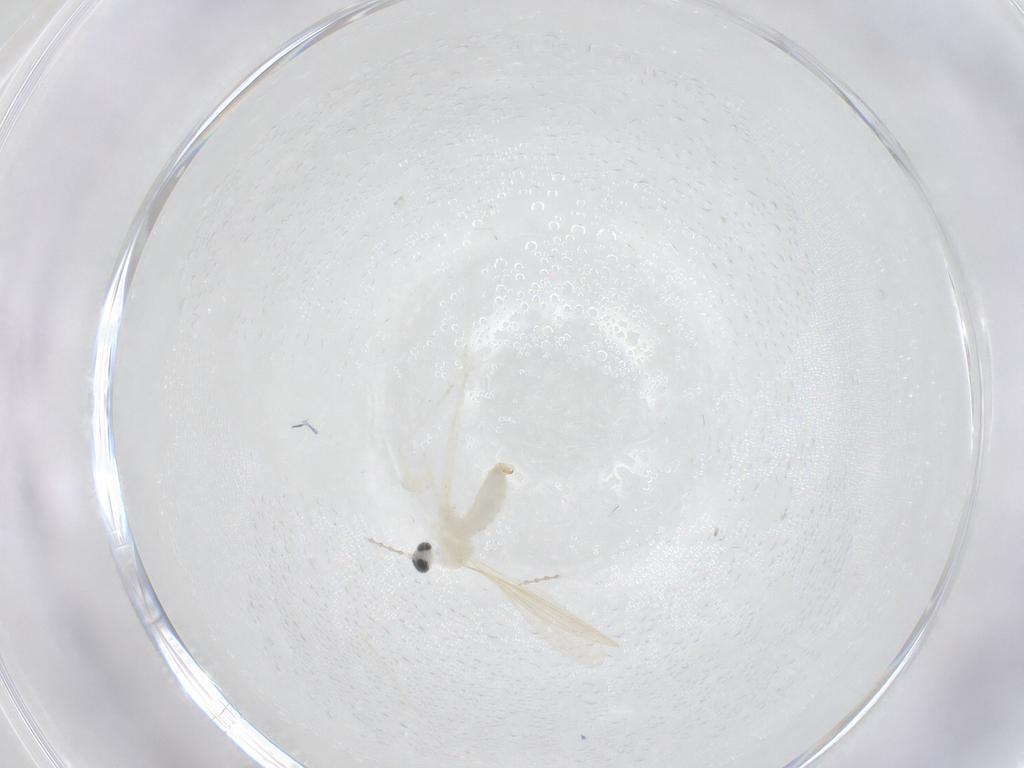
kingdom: Animalia
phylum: Arthropoda
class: Insecta
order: Diptera
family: Cecidomyiidae
